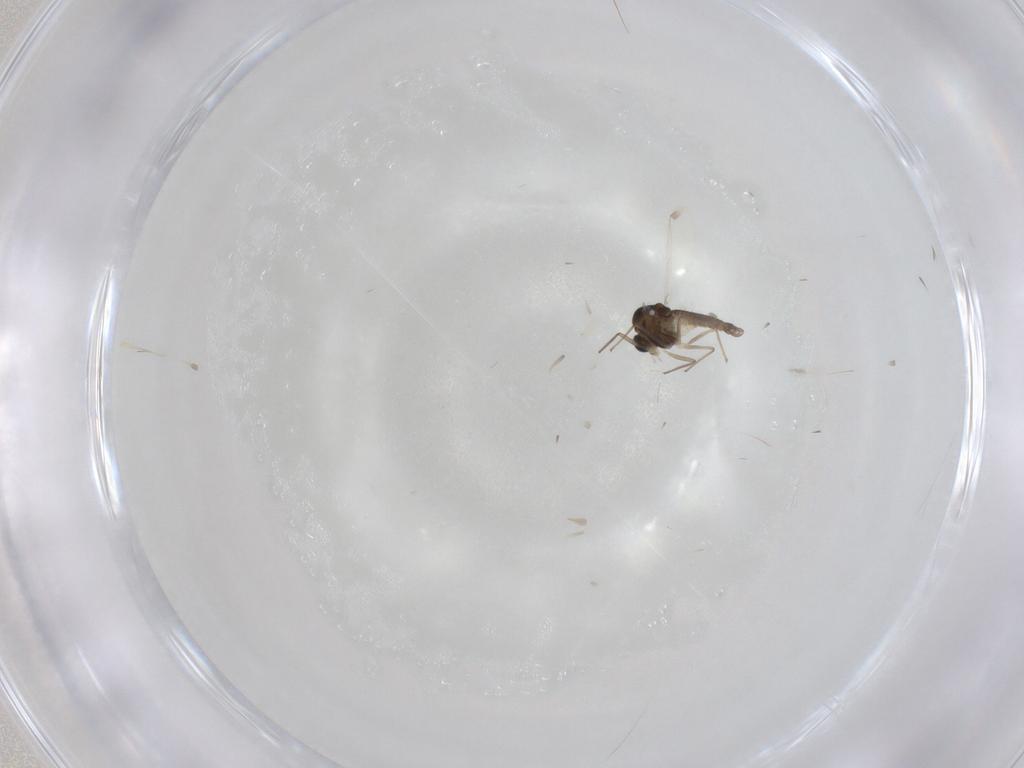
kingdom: Animalia
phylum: Arthropoda
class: Insecta
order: Diptera
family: Chironomidae
